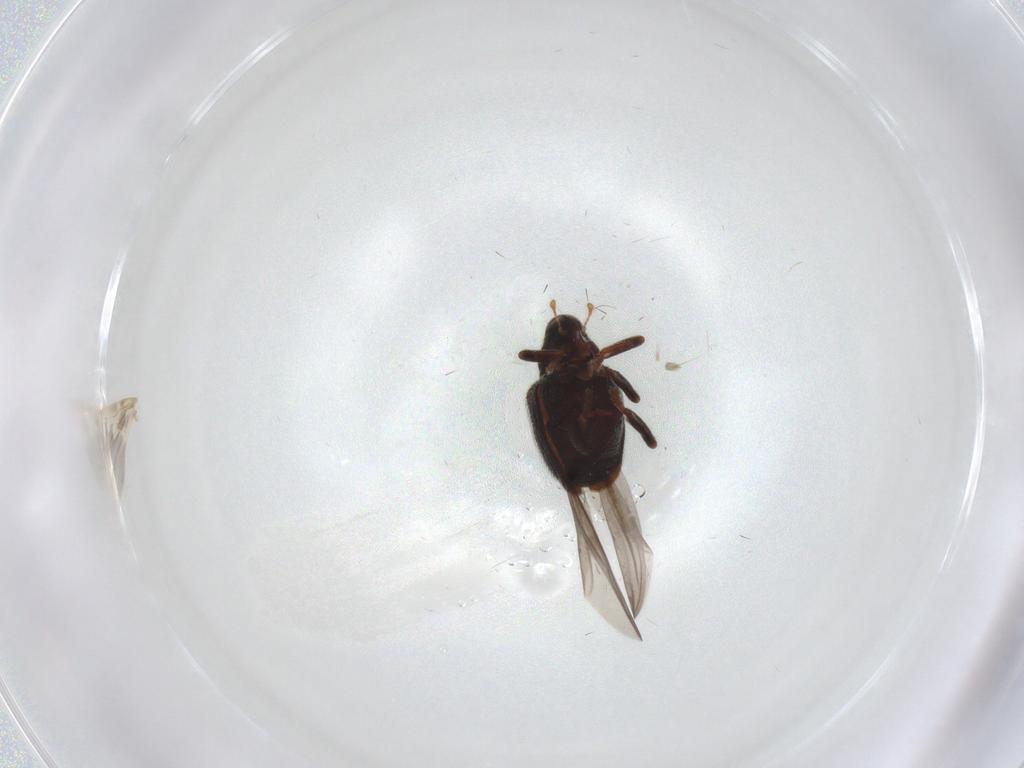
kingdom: Animalia
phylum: Arthropoda
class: Insecta
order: Coleoptera
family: Curculionidae
